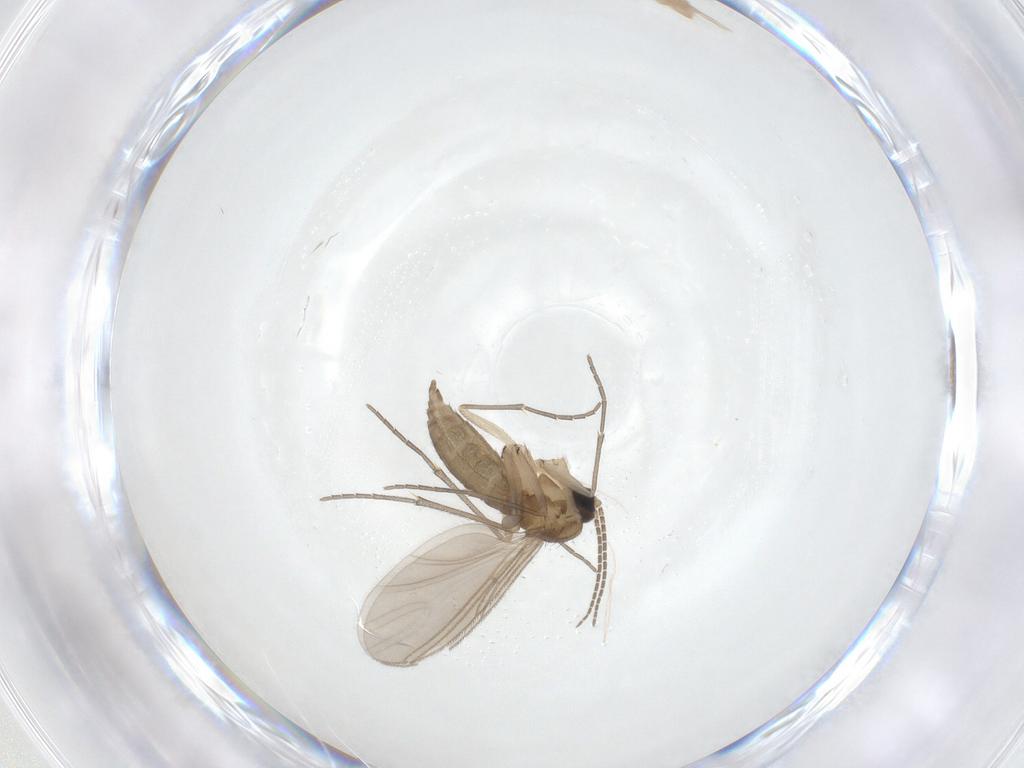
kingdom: Animalia
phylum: Arthropoda
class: Insecta
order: Diptera
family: Sciaridae
